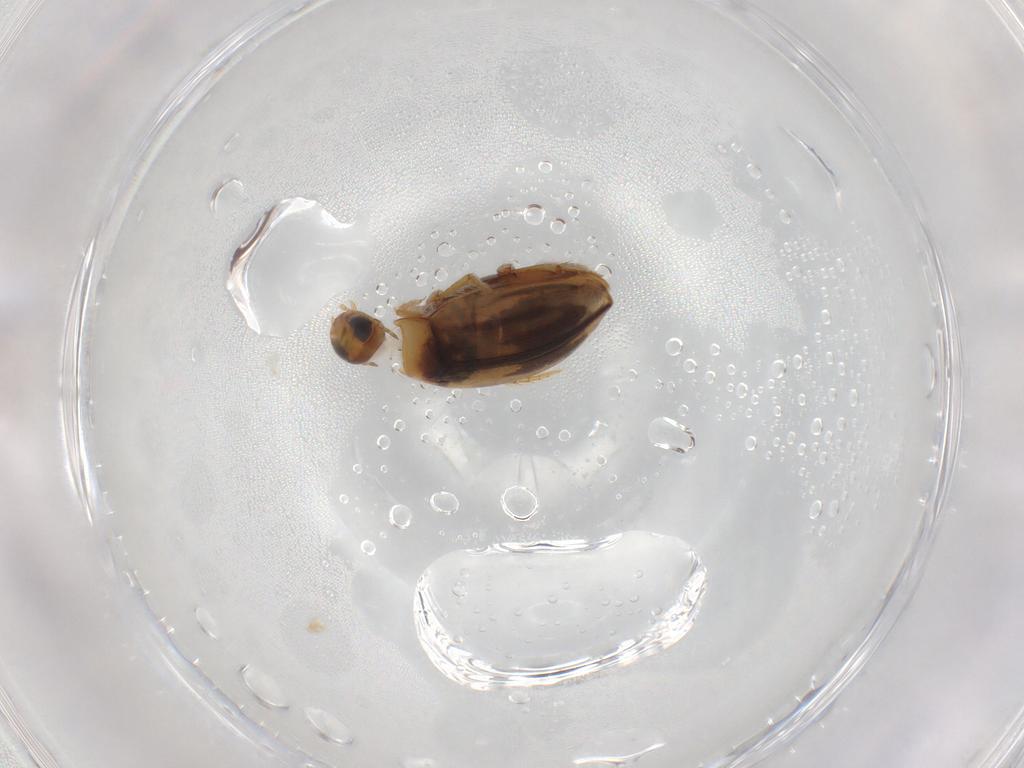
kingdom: Animalia
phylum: Arthropoda
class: Insecta
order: Coleoptera
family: Dytiscidae
